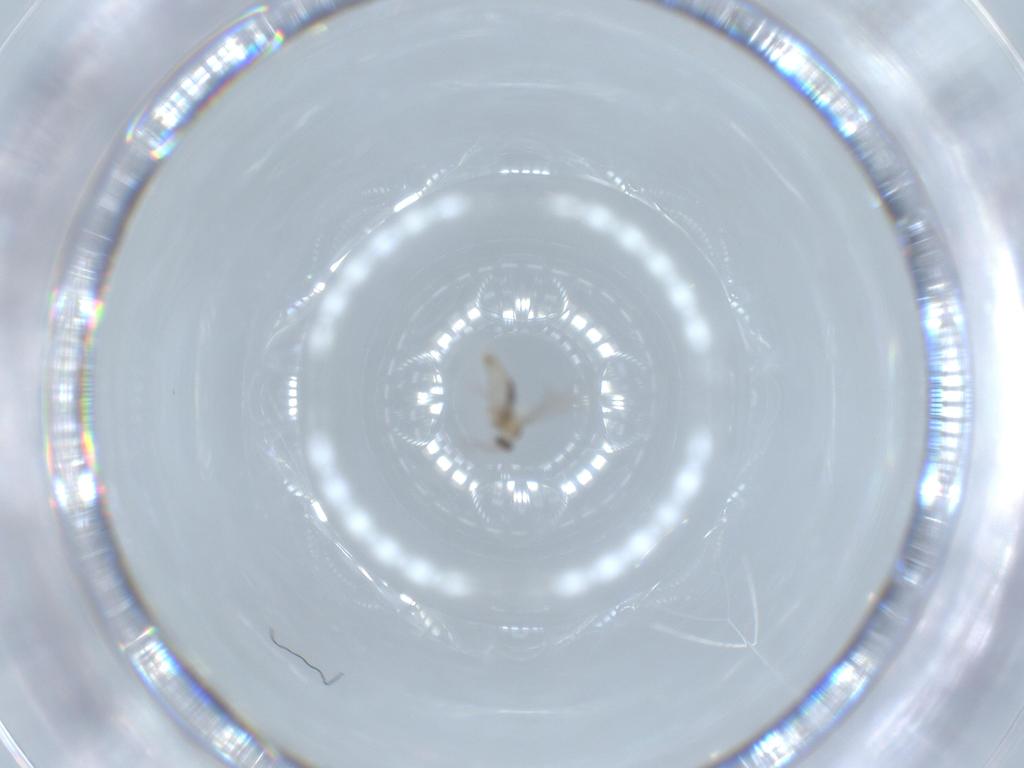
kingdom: Animalia
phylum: Arthropoda
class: Insecta
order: Diptera
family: Cecidomyiidae
